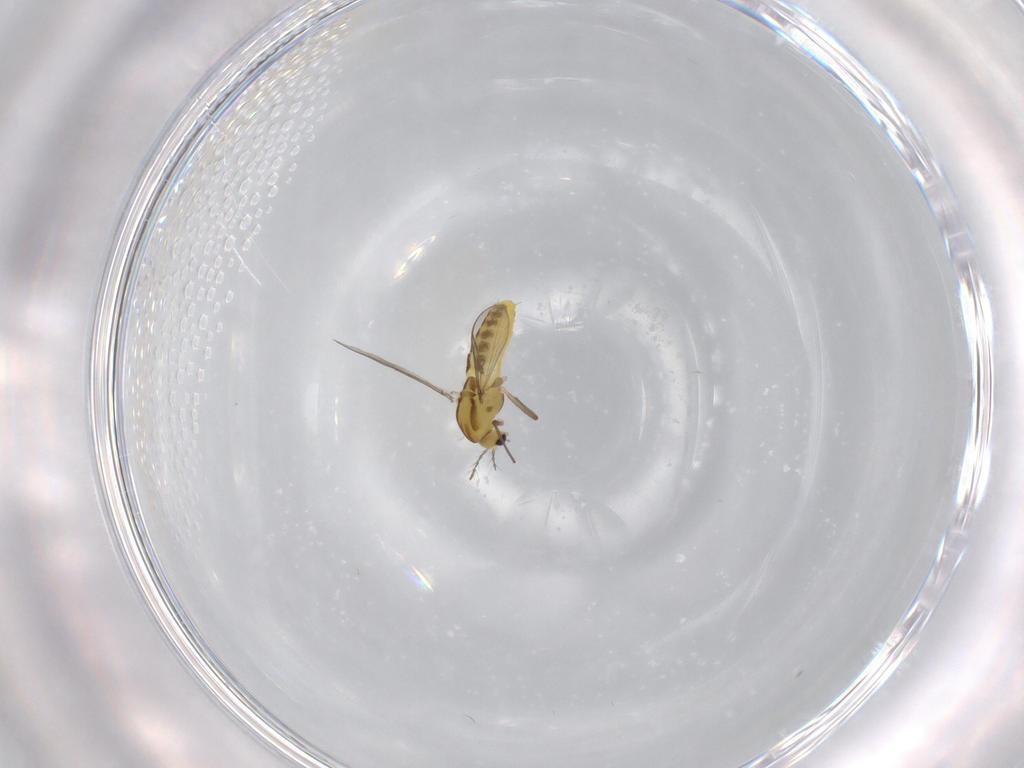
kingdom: Animalia
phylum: Arthropoda
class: Insecta
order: Diptera
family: Chironomidae
